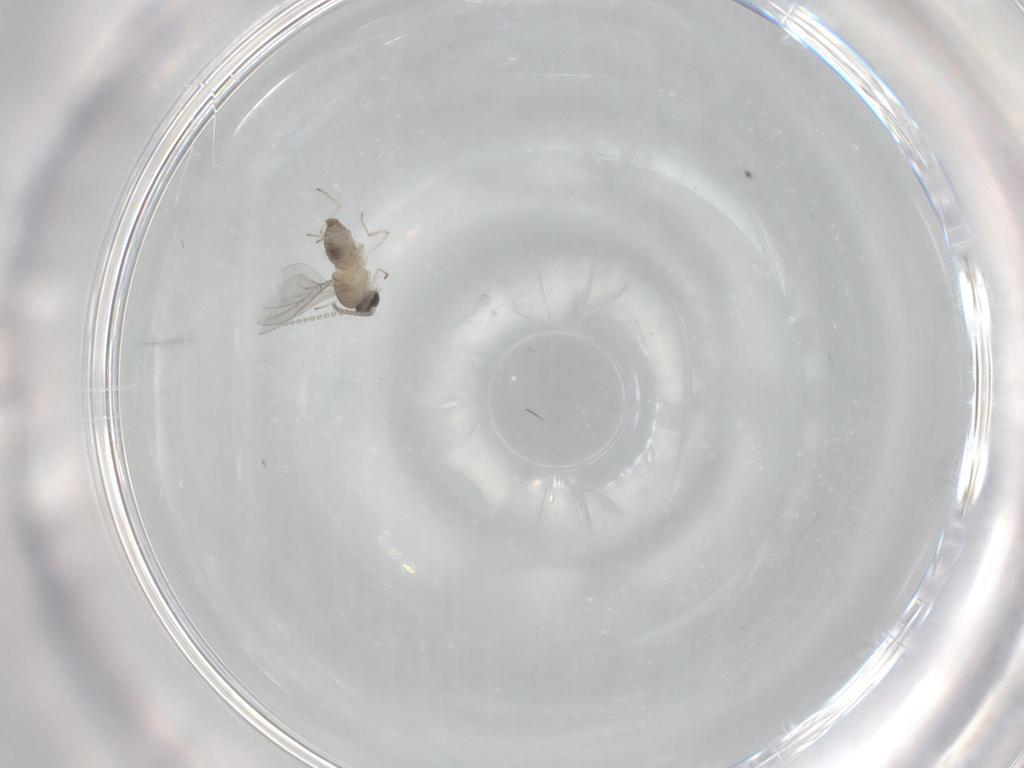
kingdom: Animalia
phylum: Arthropoda
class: Insecta
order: Diptera
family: Cecidomyiidae
